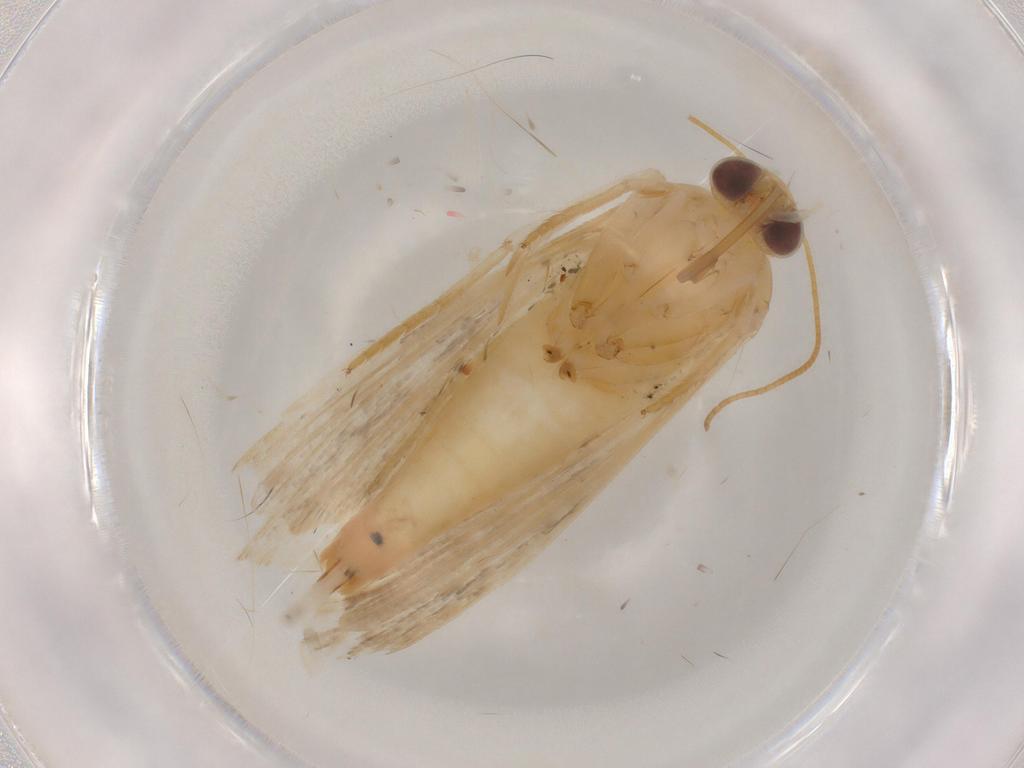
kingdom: Animalia
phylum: Arthropoda
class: Insecta
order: Lepidoptera
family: Noctuidae
